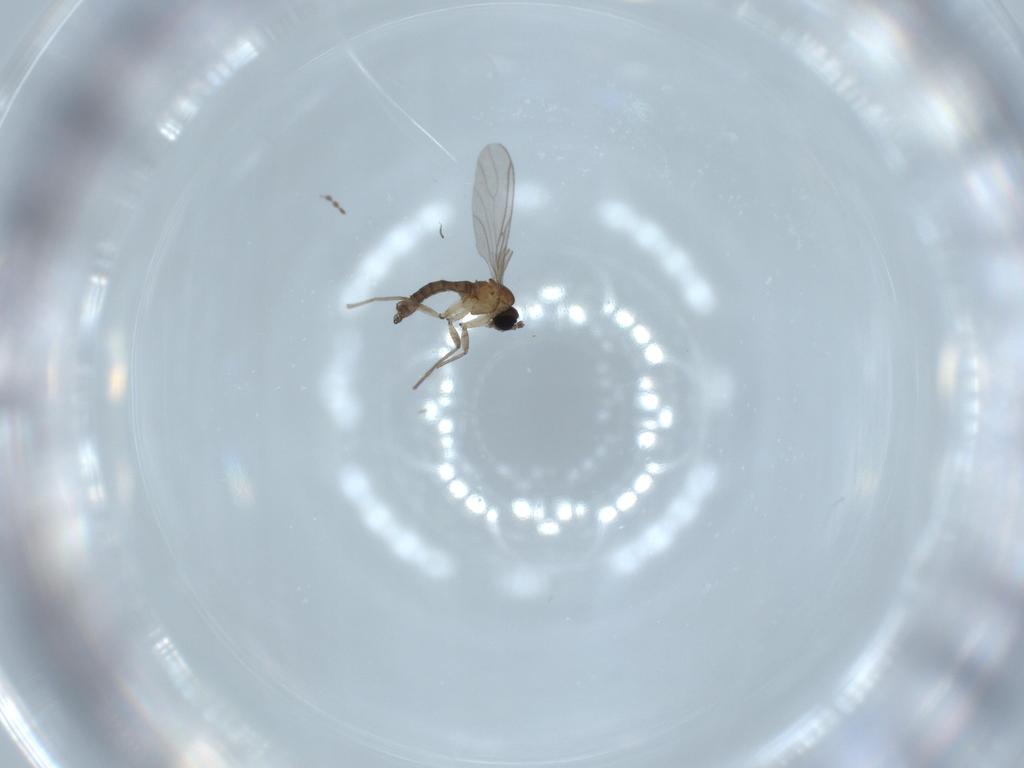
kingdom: Animalia
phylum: Arthropoda
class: Insecta
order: Diptera
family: Sciaridae
